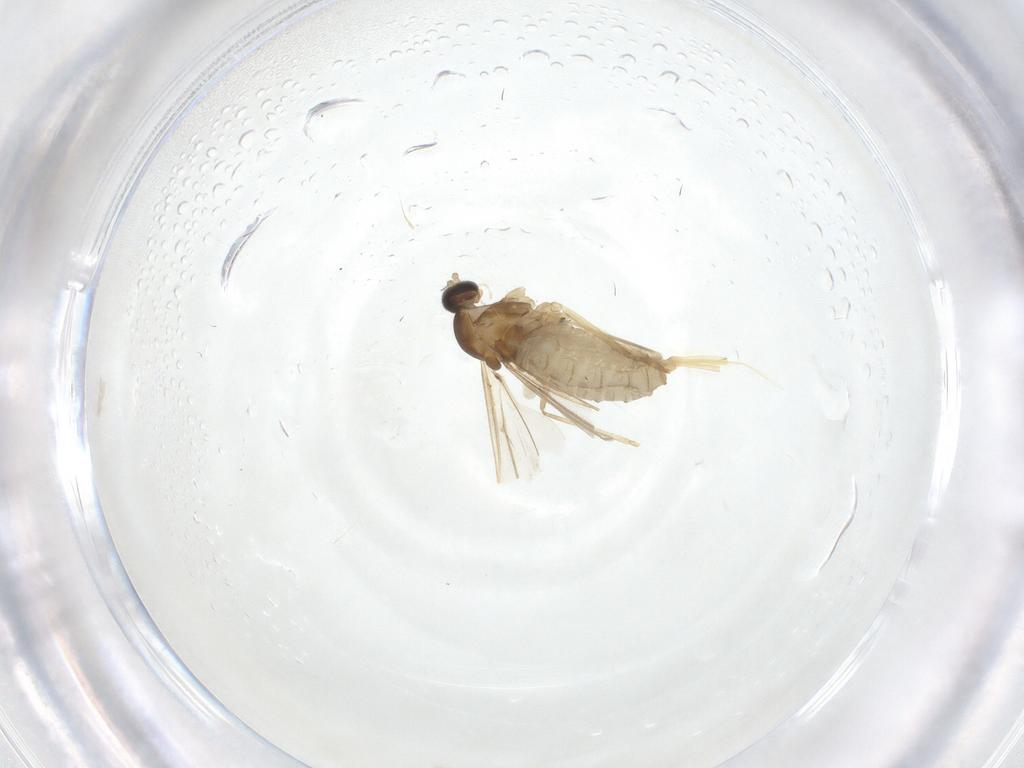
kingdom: Animalia
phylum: Arthropoda
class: Insecta
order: Diptera
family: Cecidomyiidae
